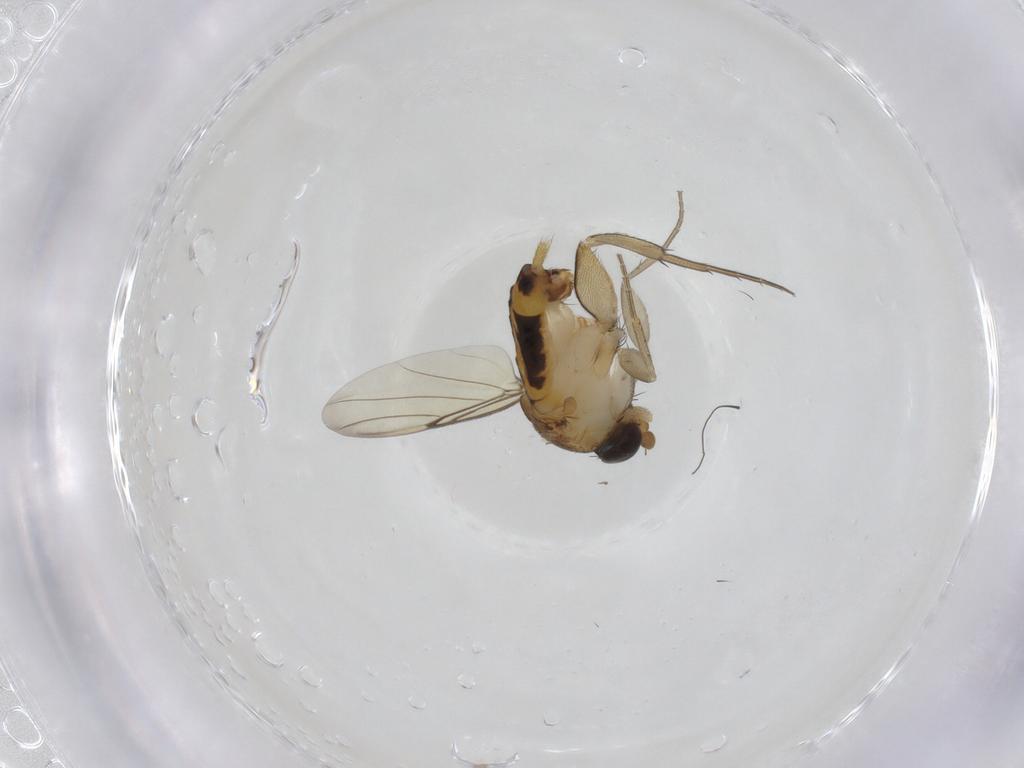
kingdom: Animalia
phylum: Arthropoda
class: Insecta
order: Diptera
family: Phoridae
